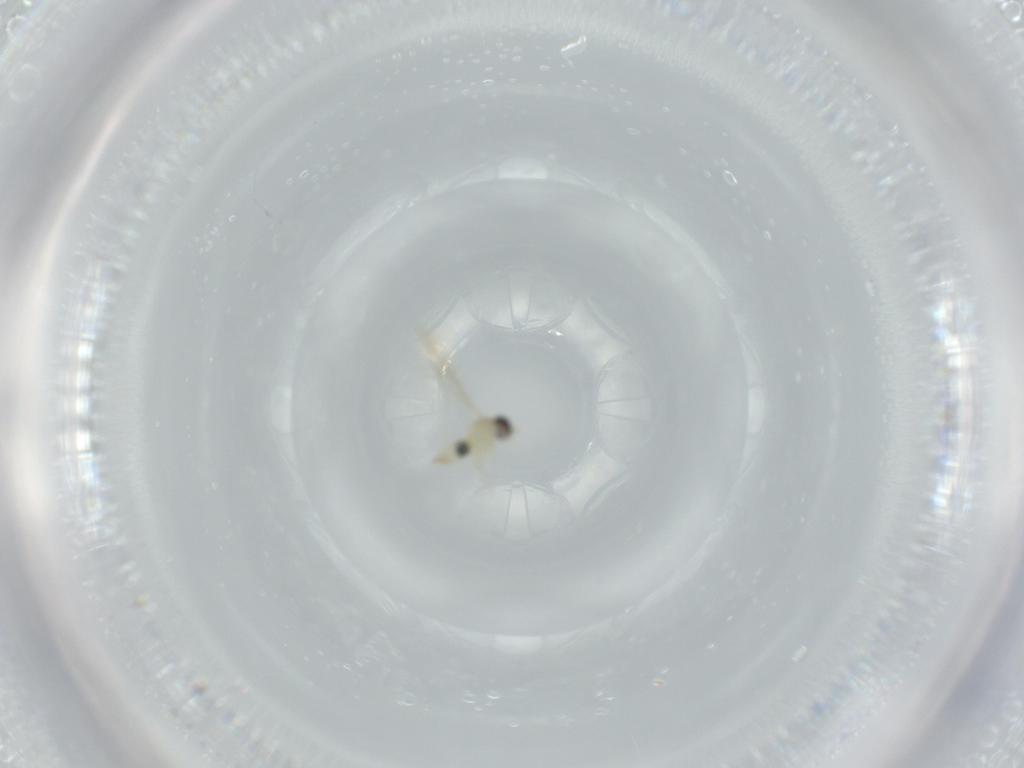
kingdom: Animalia
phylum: Arthropoda
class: Insecta
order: Diptera
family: Cecidomyiidae
